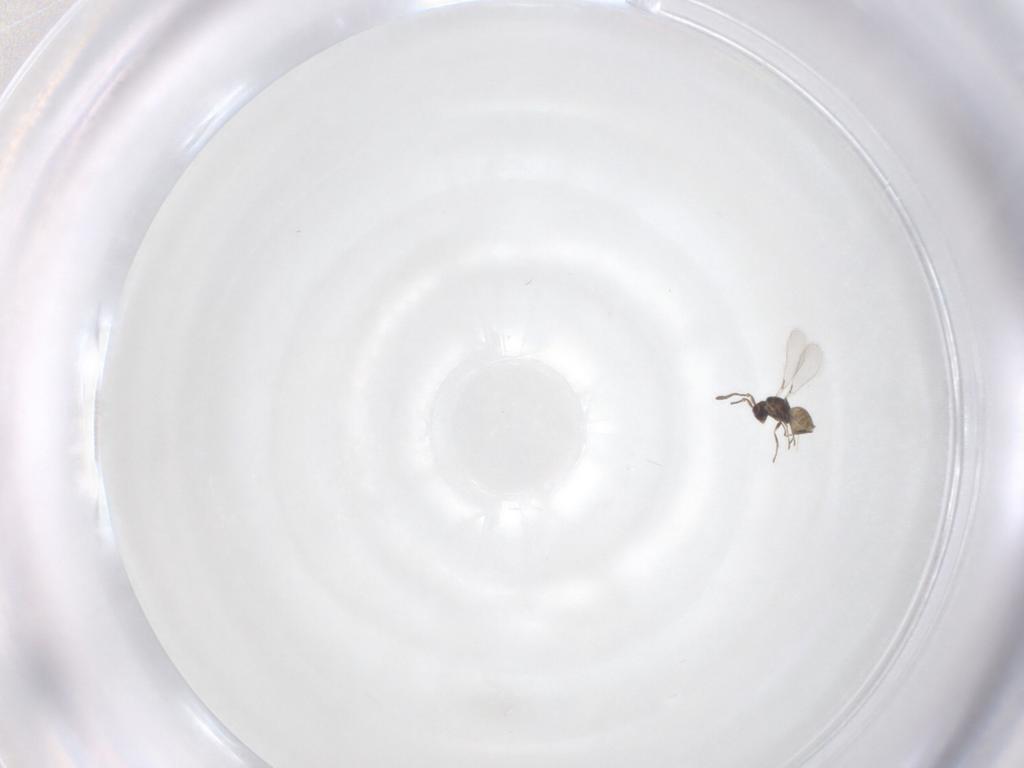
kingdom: Animalia
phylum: Arthropoda
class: Insecta
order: Hymenoptera
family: Mymaridae
